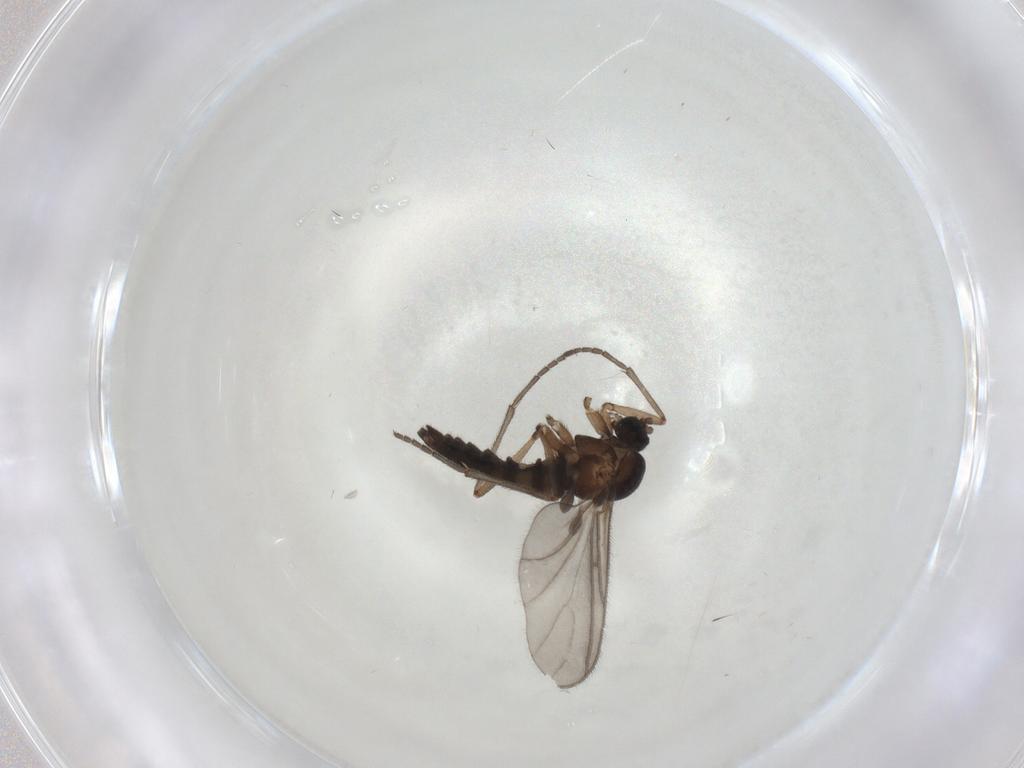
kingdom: Animalia
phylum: Arthropoda
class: Insecta
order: Diptera
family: Sciaridae
